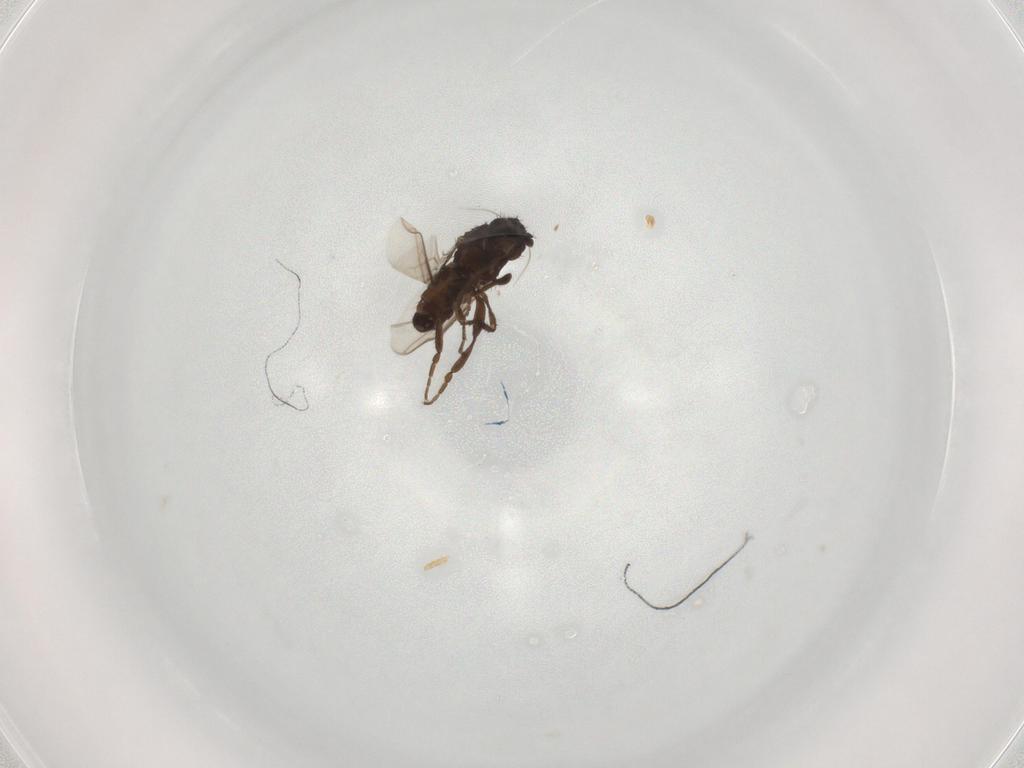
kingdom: Animalia
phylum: Arthropoda
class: Insecta
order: Diptera
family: Sphaeroceridae
